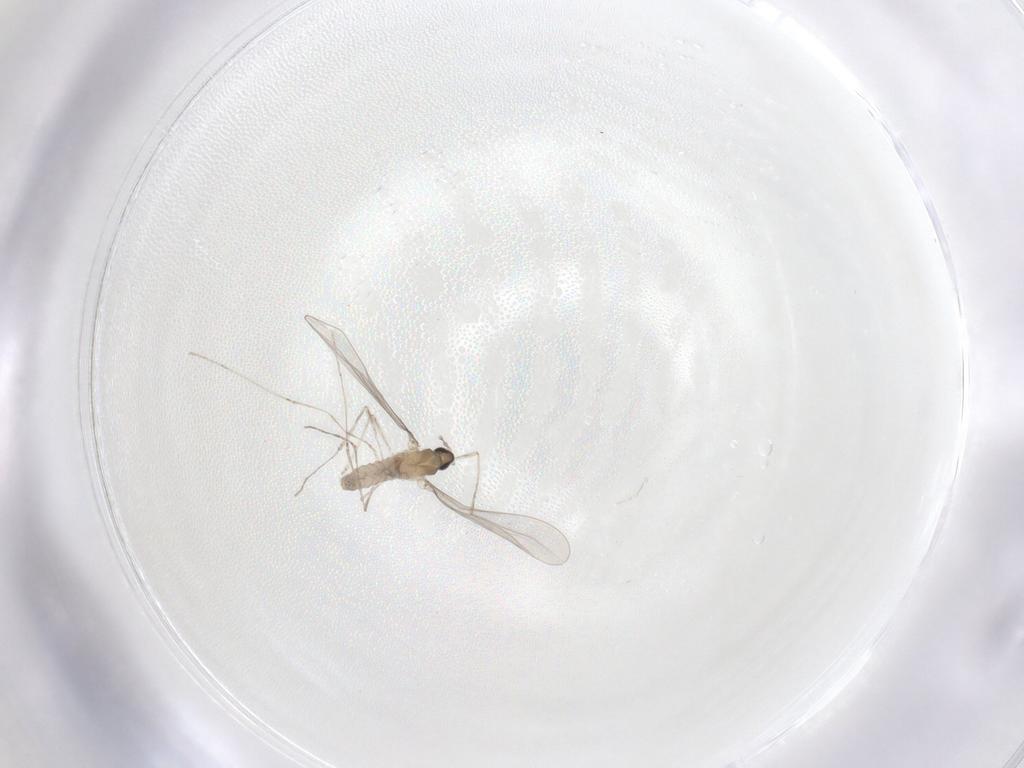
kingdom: Animalia
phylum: Arthropoda
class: Insecta
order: Diptera
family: Cecidomyiidae
